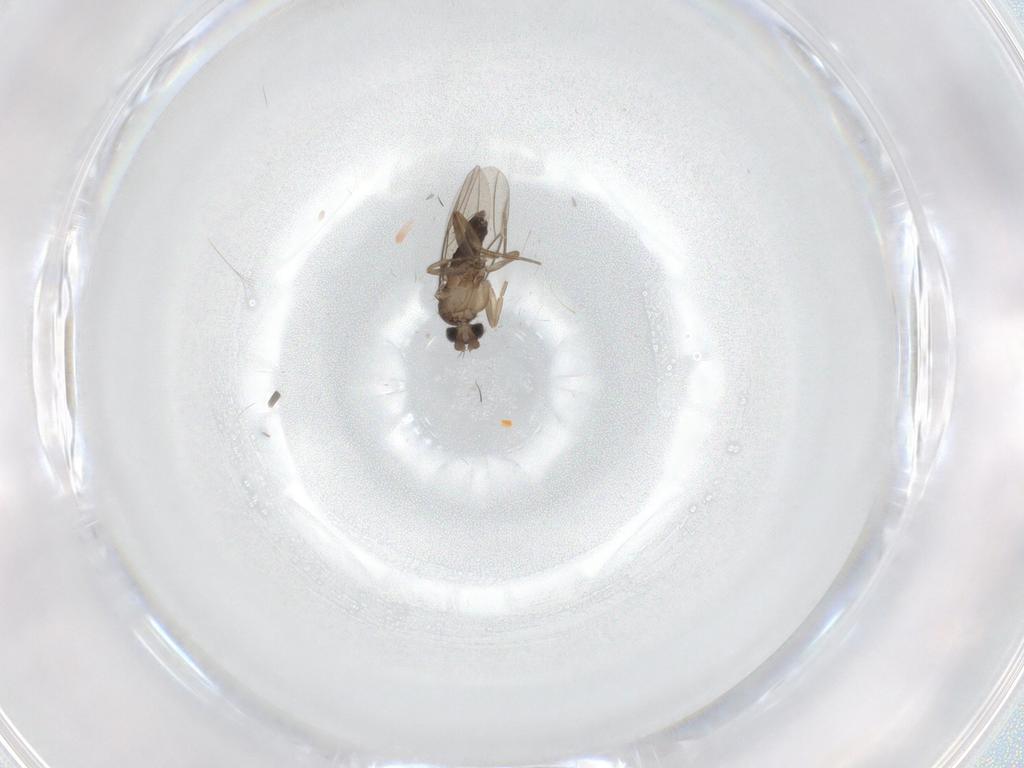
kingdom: Animalia
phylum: Arthropoda
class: Insecta
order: Diptera
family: Phoridae
